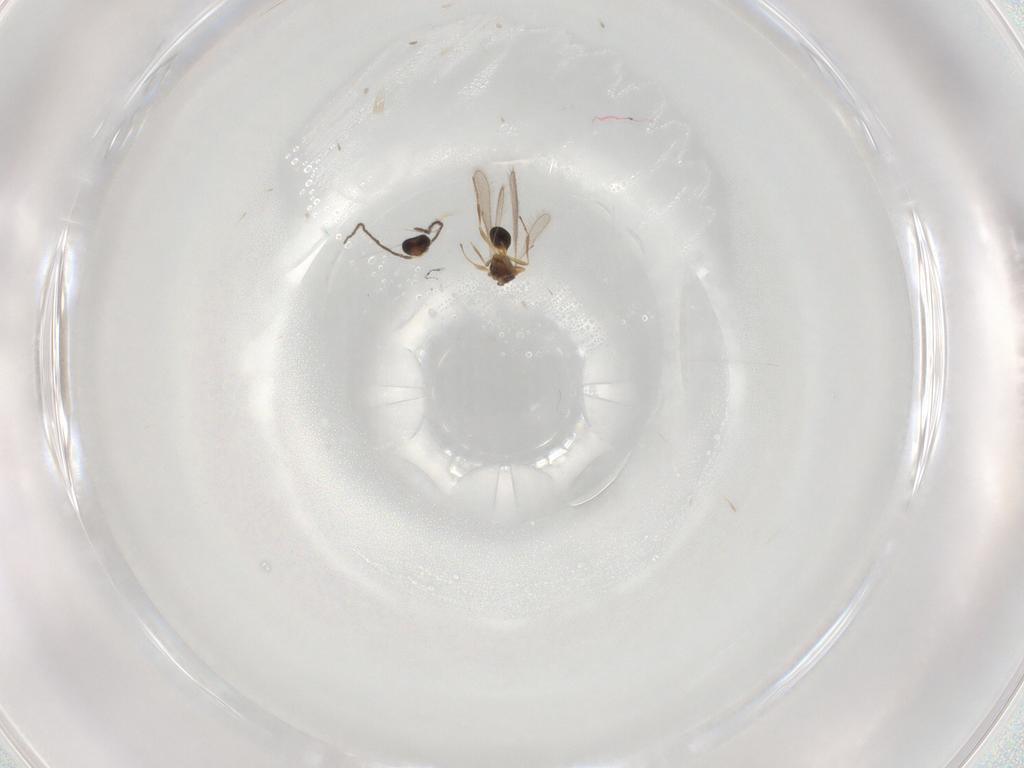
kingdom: Animalia
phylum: Arthropoda
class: Insecta
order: Hymenoptera
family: Scelionidae
